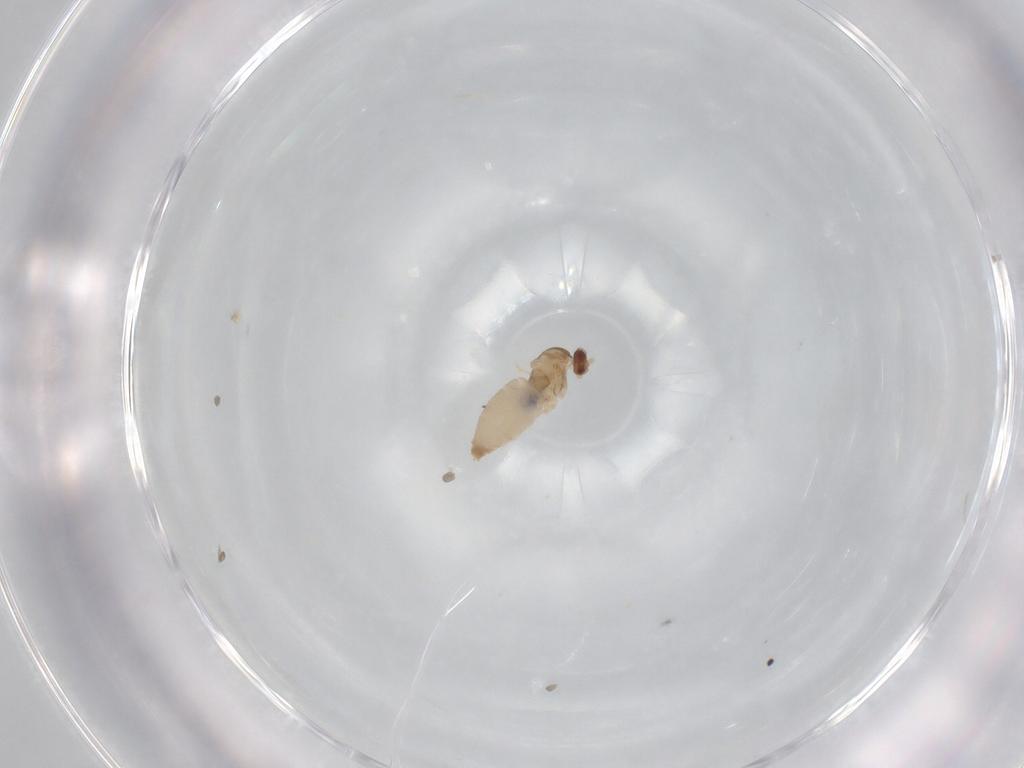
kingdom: Animalia
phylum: Arthropoda
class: Insecta
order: Diptera
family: Cecidomyiidae
